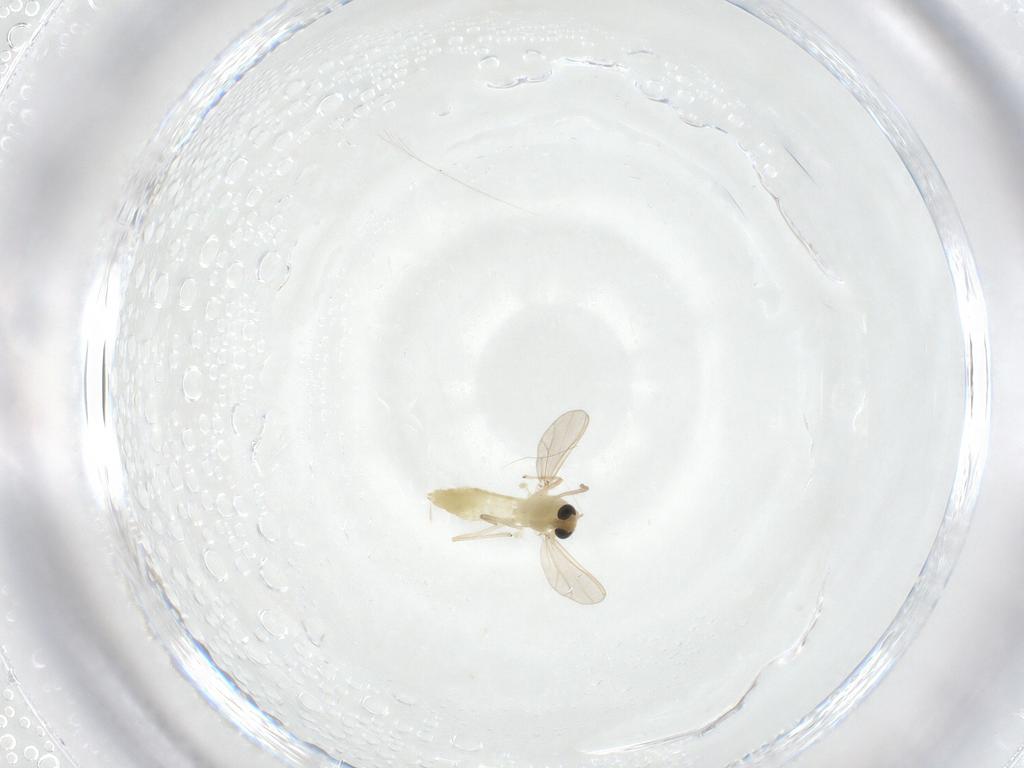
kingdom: Animalia
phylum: Arthropoda
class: Insecta
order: Diptera
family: Chironomidae
